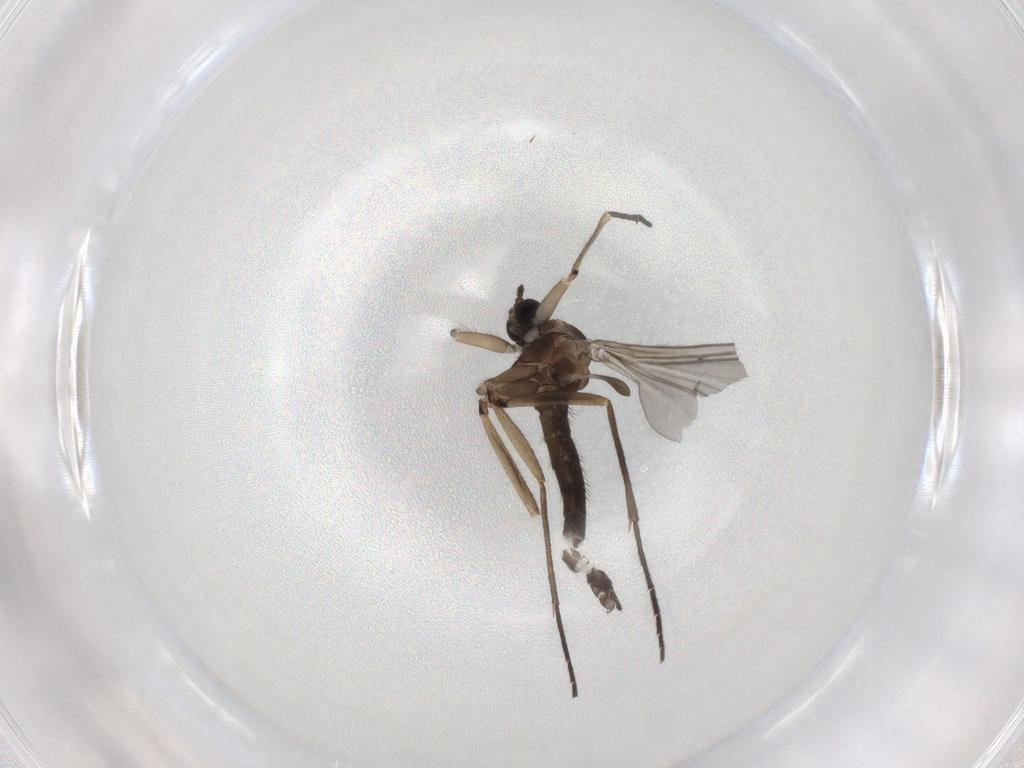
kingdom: Animalia
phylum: Arthropoda
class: Insecta
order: Diptera
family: Sciaridae
